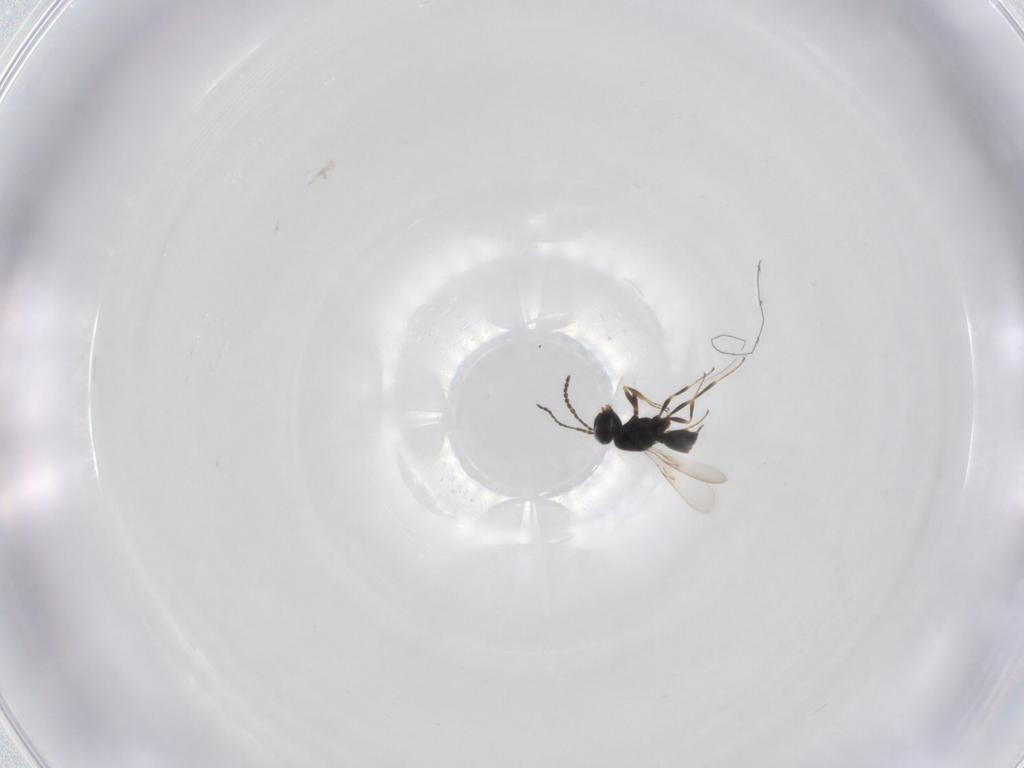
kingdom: Animalia
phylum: Arthropoda
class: Insecta
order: Hymenoptera
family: Scelionidae
